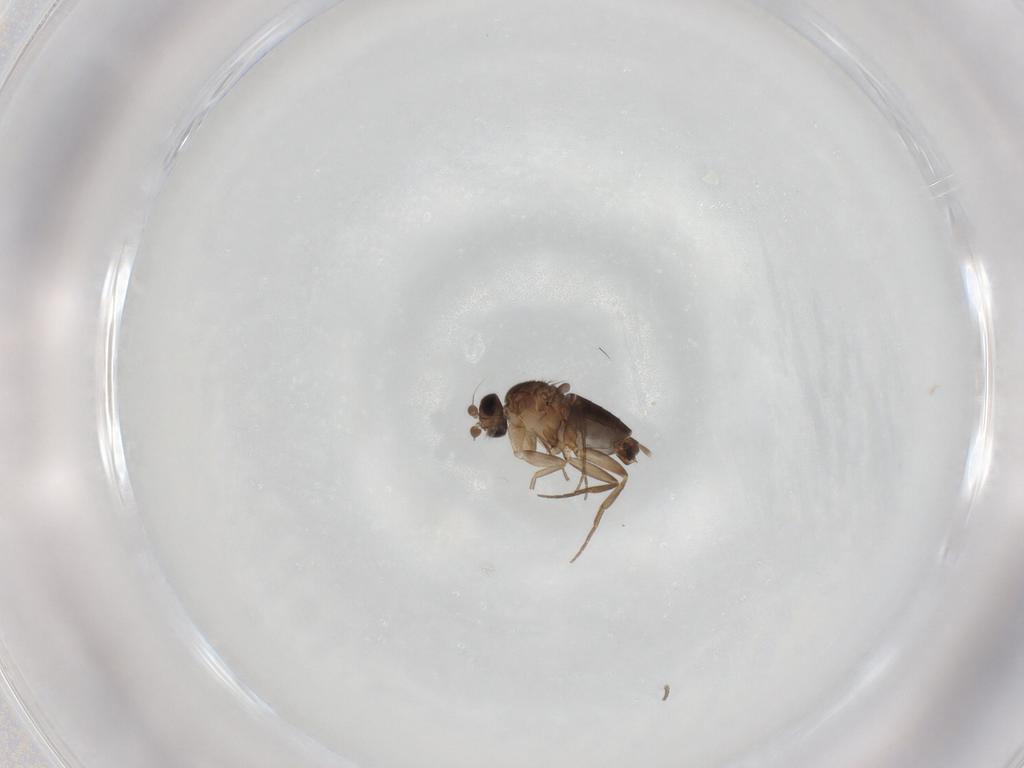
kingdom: Animalia
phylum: Arthropoda
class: Insecta
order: Diptera
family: Phoridae
